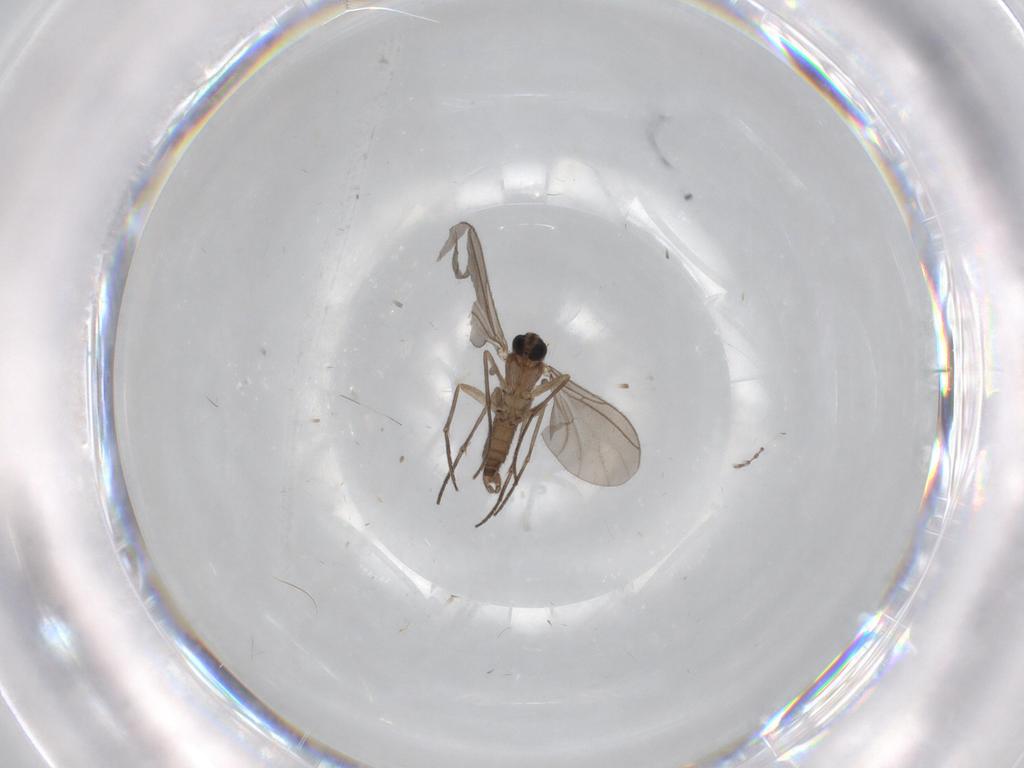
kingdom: Animalia
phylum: Arthropoda
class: Insecta
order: Diptera
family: Sciaridae
